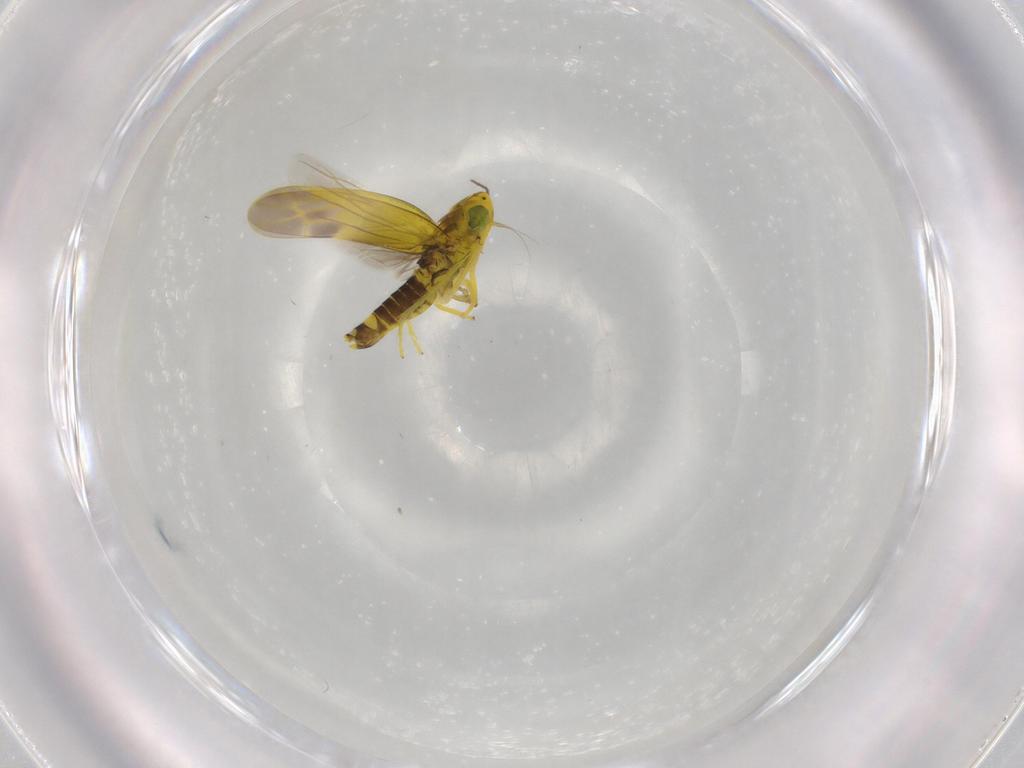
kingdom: Animalia
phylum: Arthropoda
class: Insecta
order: Hemiptera
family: Cicadellidae
